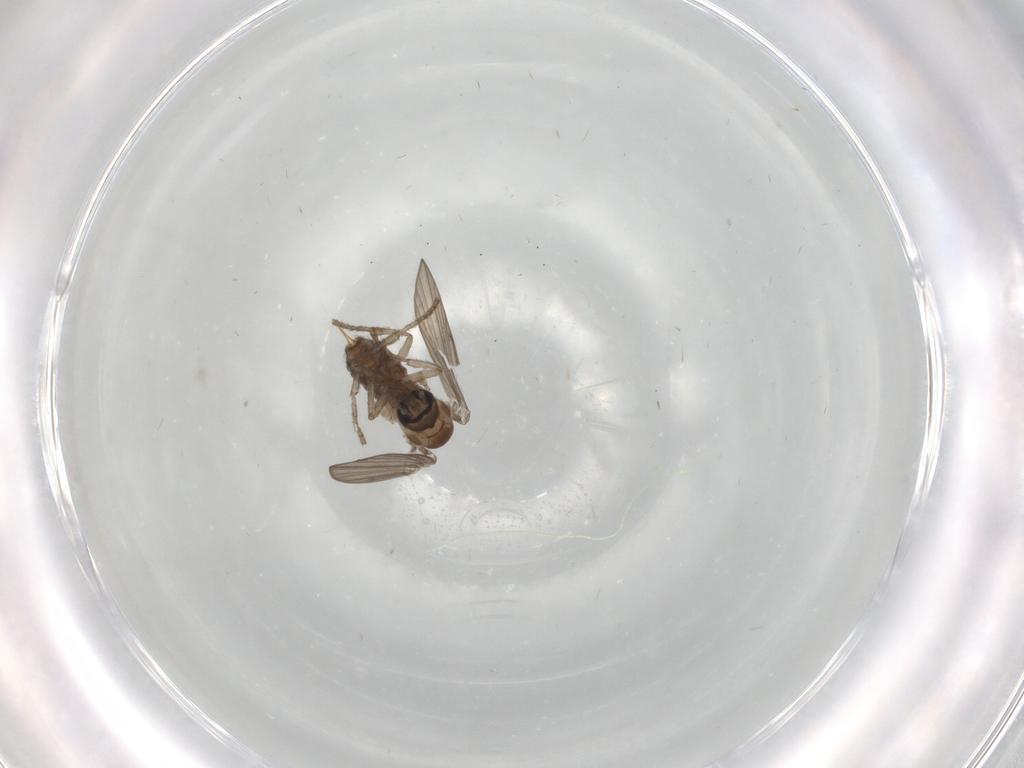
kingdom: Animalia
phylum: Arthropoda
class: Insecta
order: Diptera
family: Psychodidae
